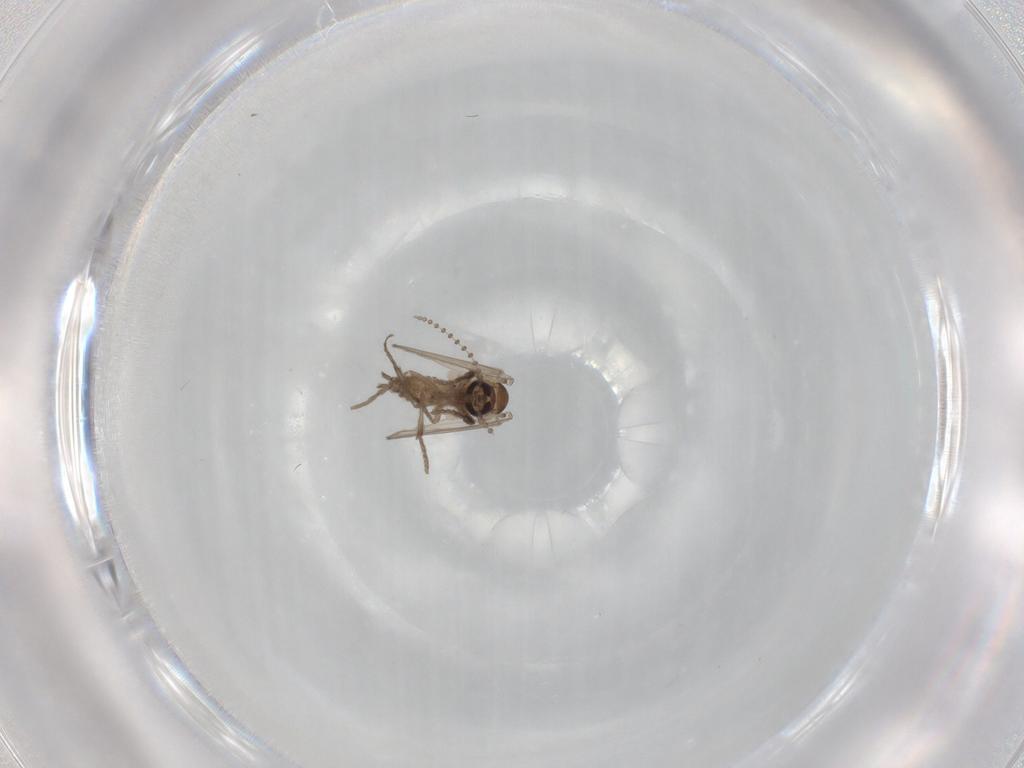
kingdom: Animalia
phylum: Arthropoda
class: Insecta
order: Diptera
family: Psychodidae
